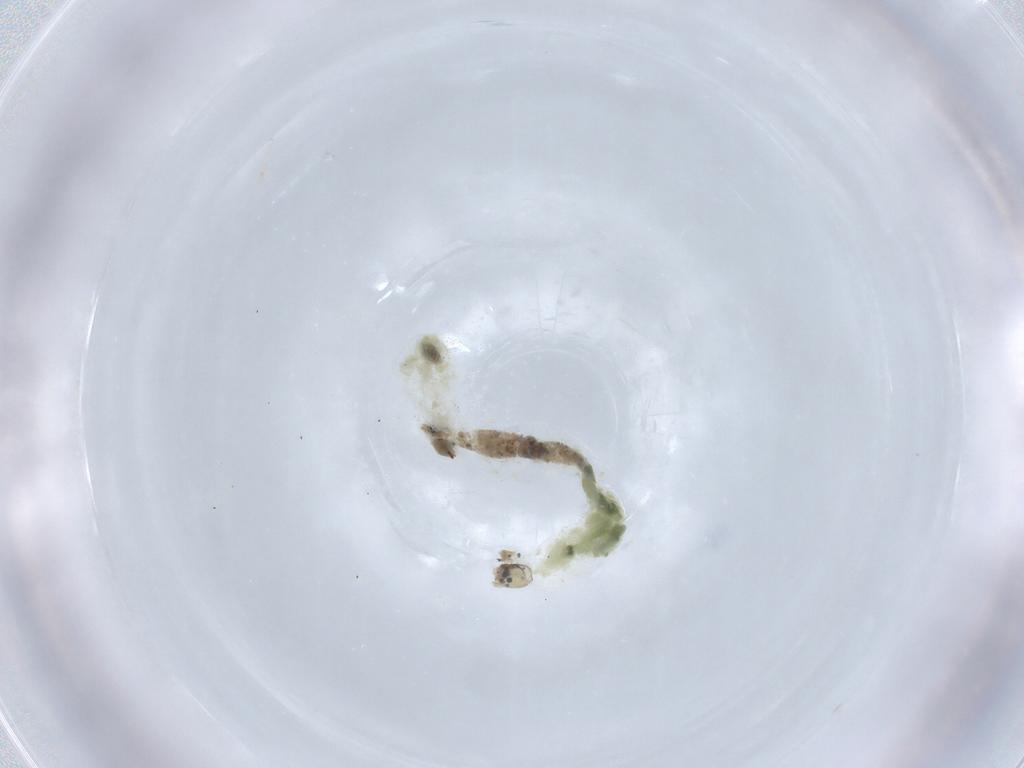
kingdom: Animalia
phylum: Arthropoda
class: Insecta
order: Diptera
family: Chironomidae
